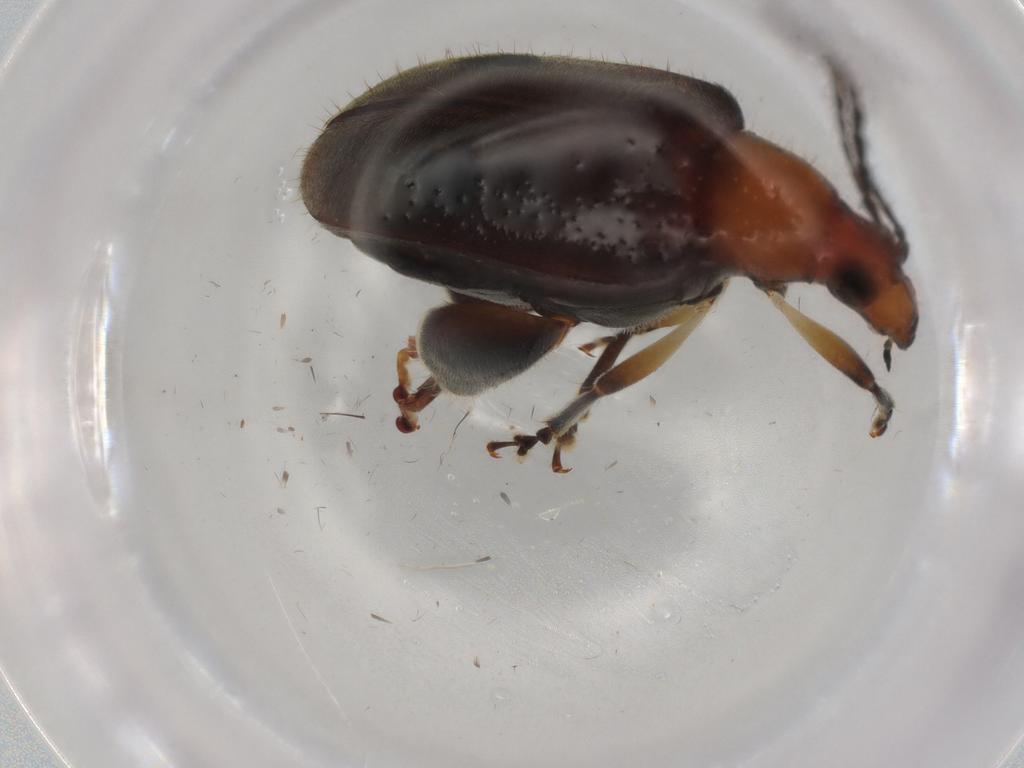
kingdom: Animalia
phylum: Arthropoda
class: Insecta
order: Coleoptera
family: Chrysomelidae
